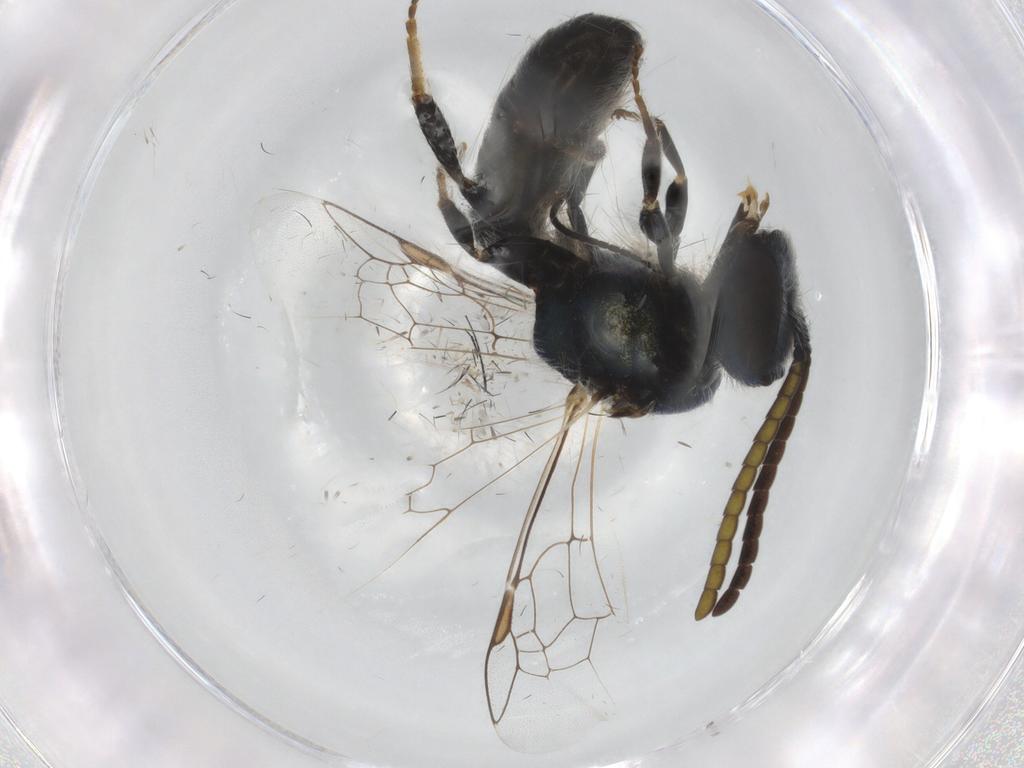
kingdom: Animalia
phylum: Arthropoda
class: Insecta
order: Hymenoptera
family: Halictidae
